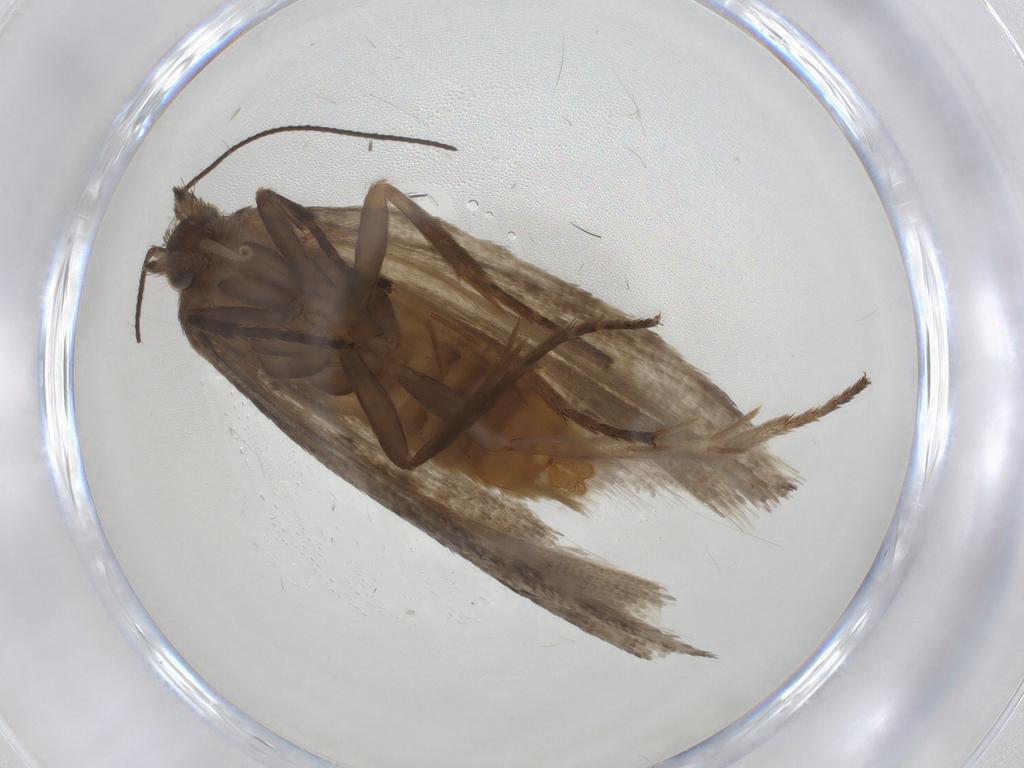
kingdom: Animalia
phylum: Arthropoda
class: Insecta
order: Lepidoptera
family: Tortricidae
